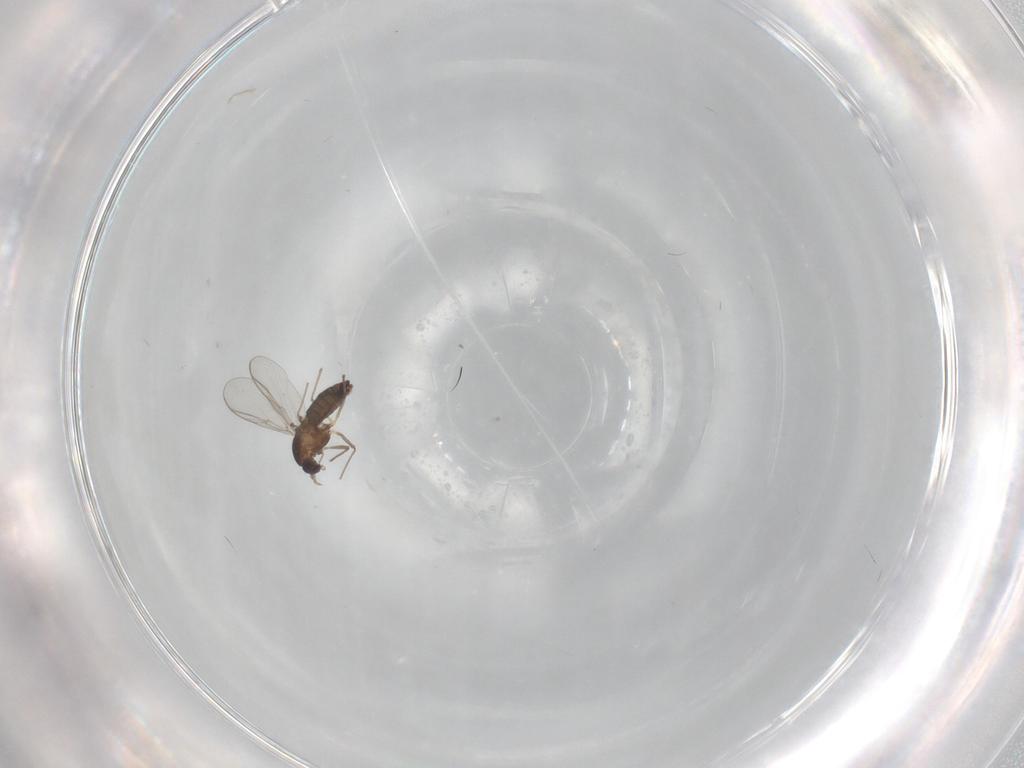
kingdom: Animalia
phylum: Arthropoda
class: Insecta
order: Diptera
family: Chironomidae
